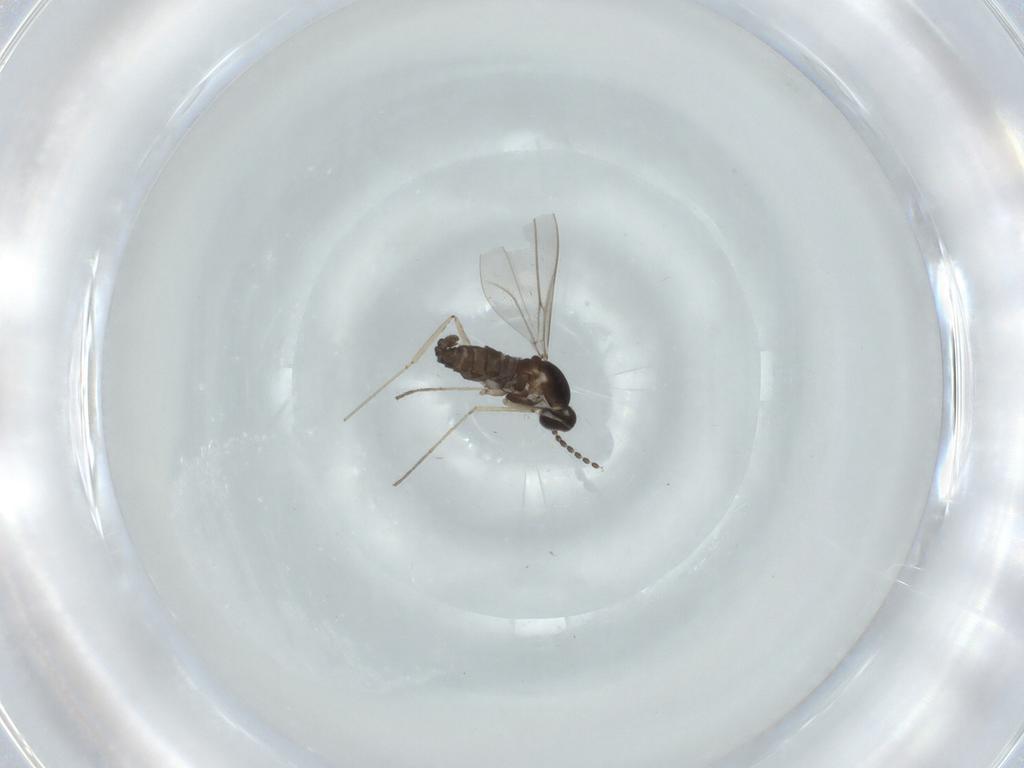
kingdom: Animalia
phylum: Arthropoda
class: Insecta
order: Diptera
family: Cecidomyiidae
